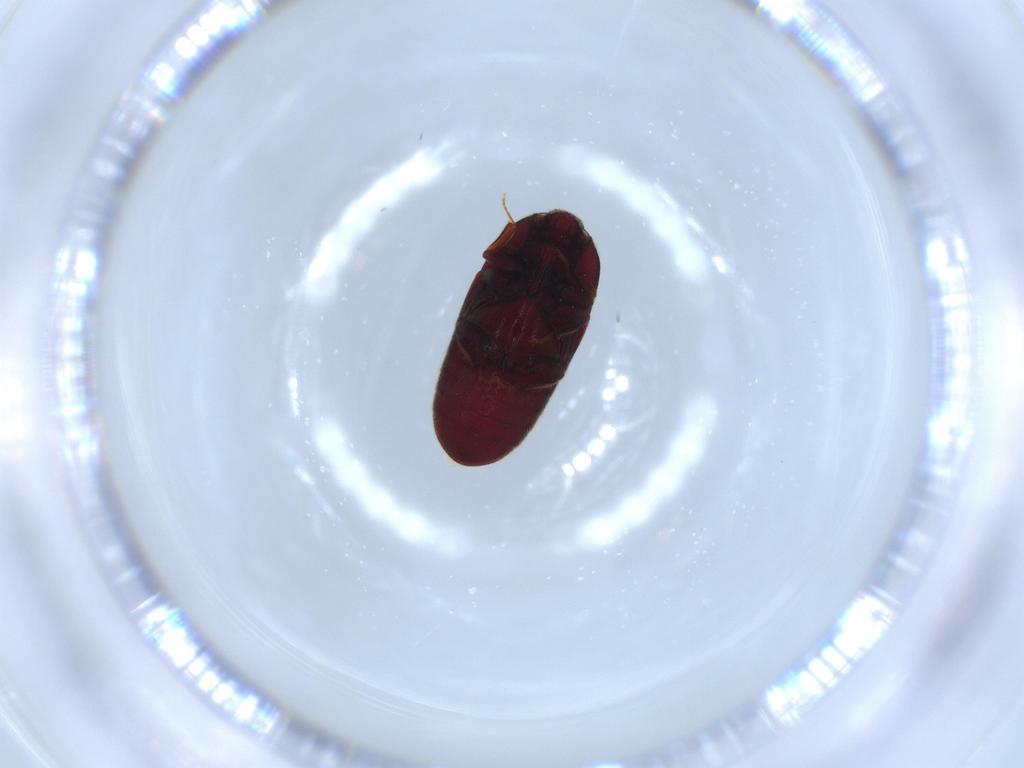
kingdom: Animalia
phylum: Arthropoda
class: Insecta
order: Coleoptera
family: Throscidae
